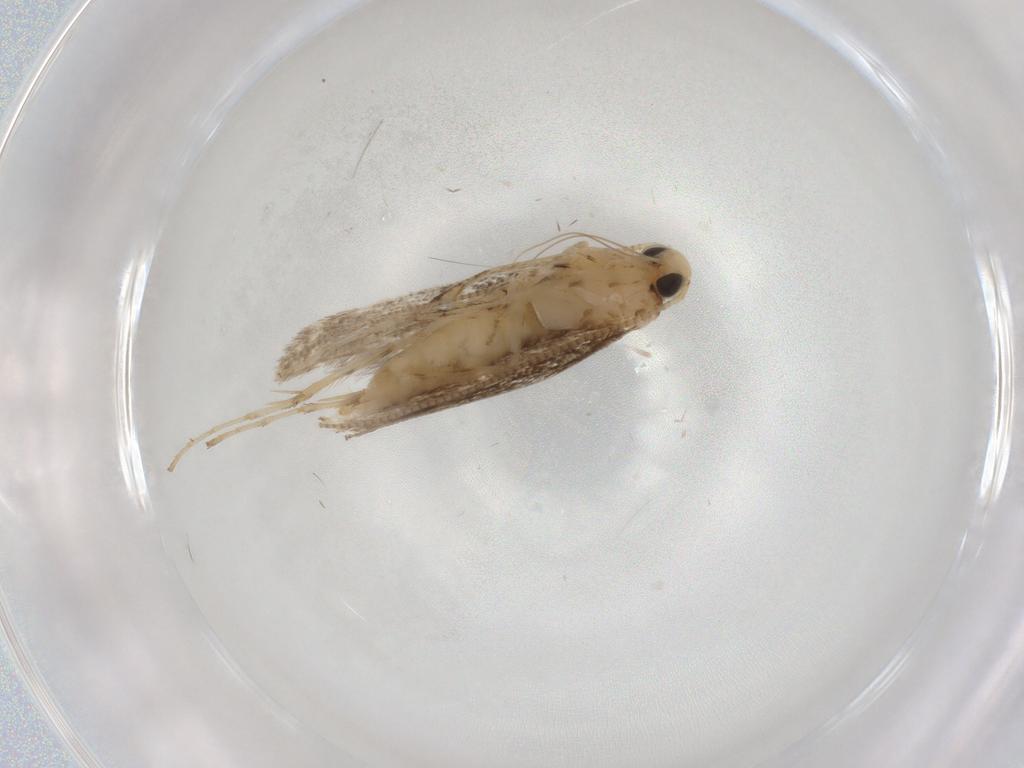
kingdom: Animalia
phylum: Arthropoda
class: Insecta
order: Lepidoptera
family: Gracillariidae
